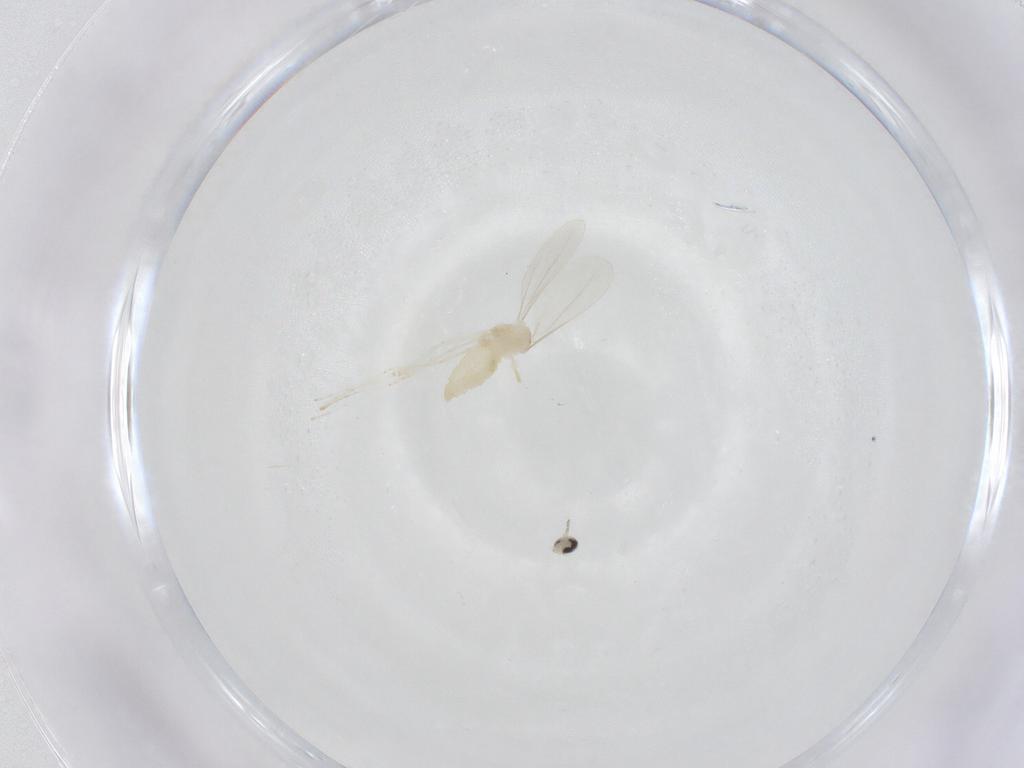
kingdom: Animalia
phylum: Arthropoda
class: Insecta
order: Diptera
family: Cecidomyiidae
